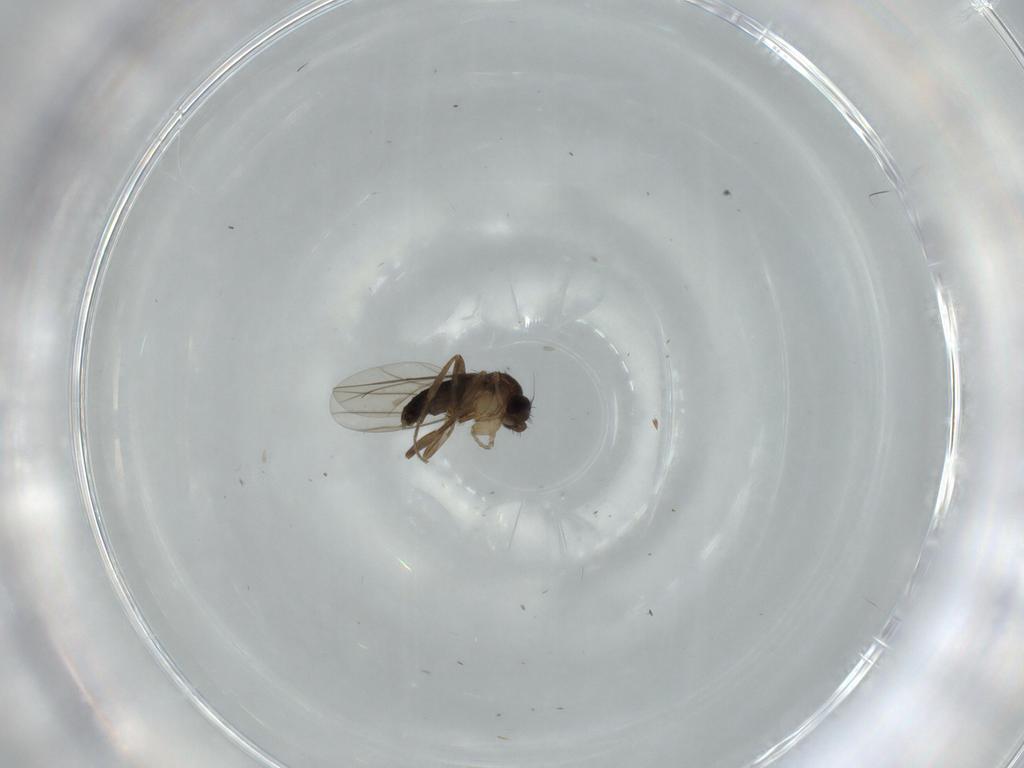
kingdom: Animalia
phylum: Arthropoda
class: Insecta
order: Diptera
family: Phoridae
